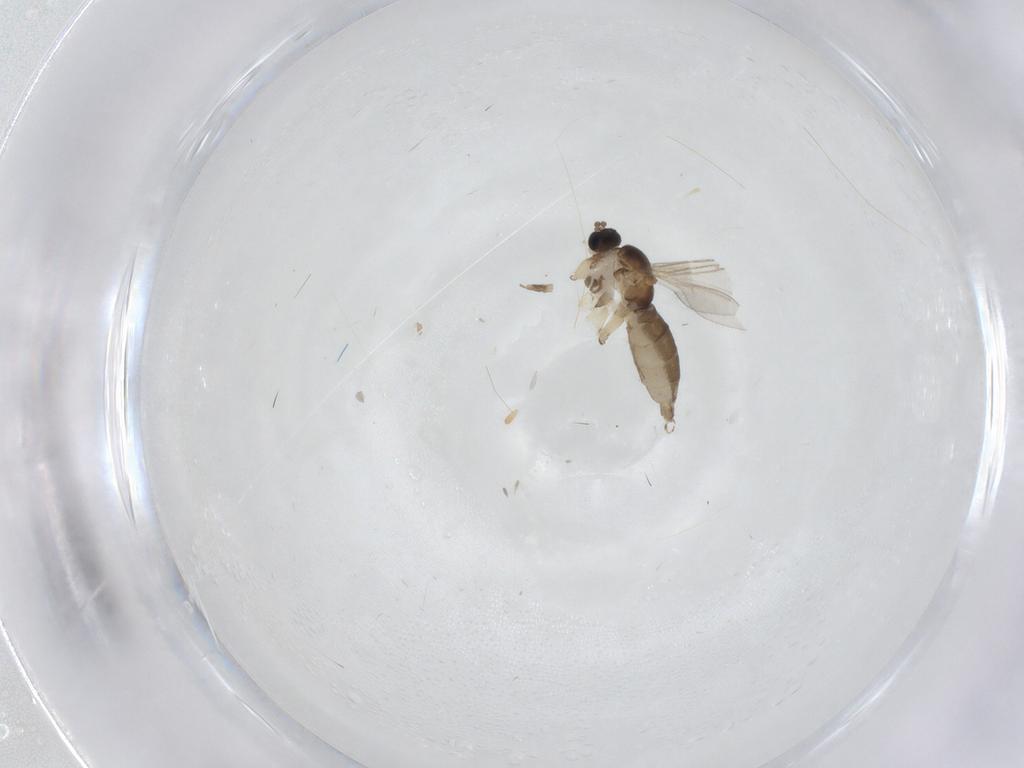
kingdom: Animalia
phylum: Arthropoda
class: Insecta
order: Diptera
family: Sciaridae
